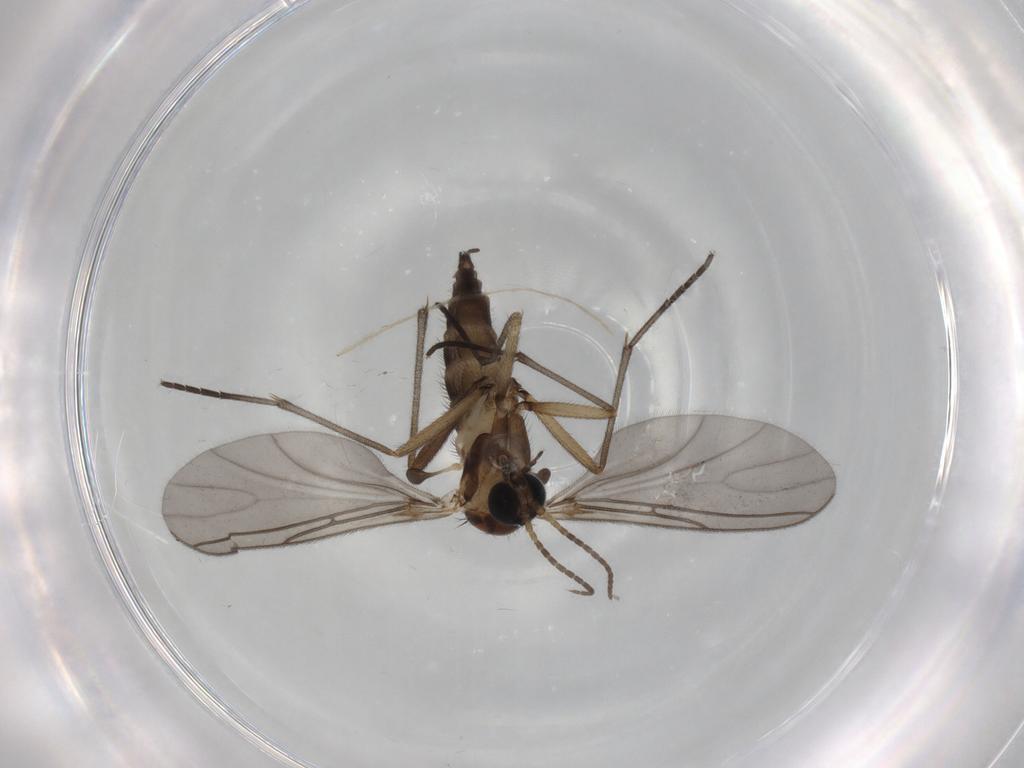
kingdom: Animalia
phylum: Arthropoda
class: Insecta
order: Diptera
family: Sciaridae
